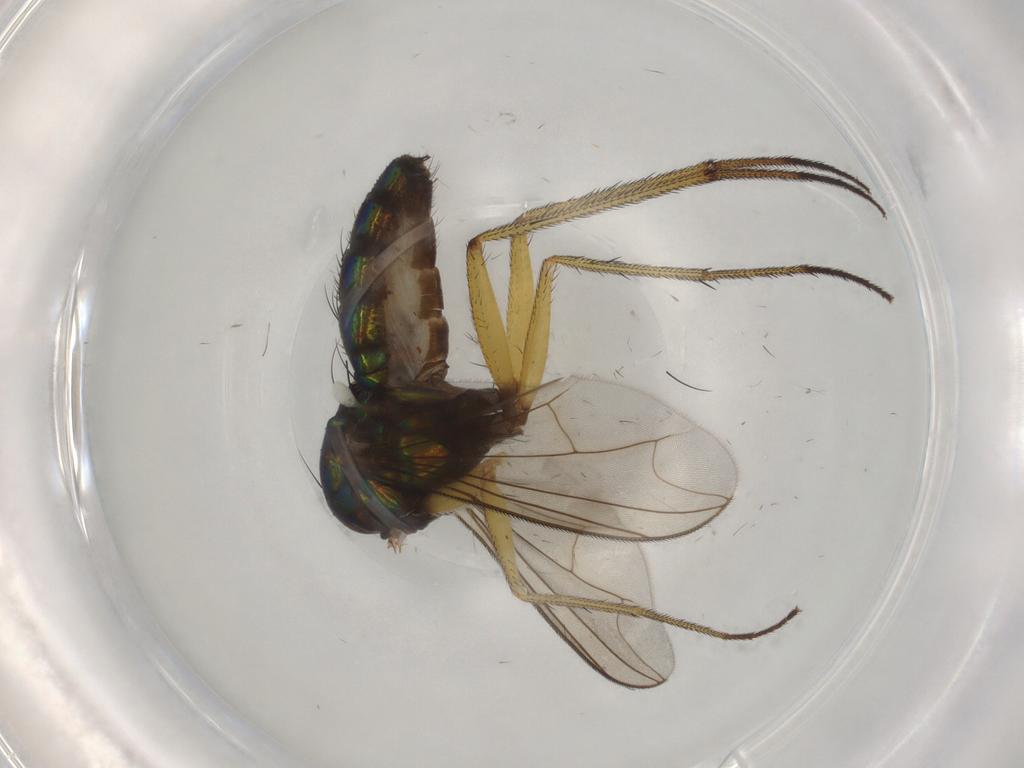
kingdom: Animalia
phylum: Arthropoda
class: Insecta
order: Diptera
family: Dolichopodidae
